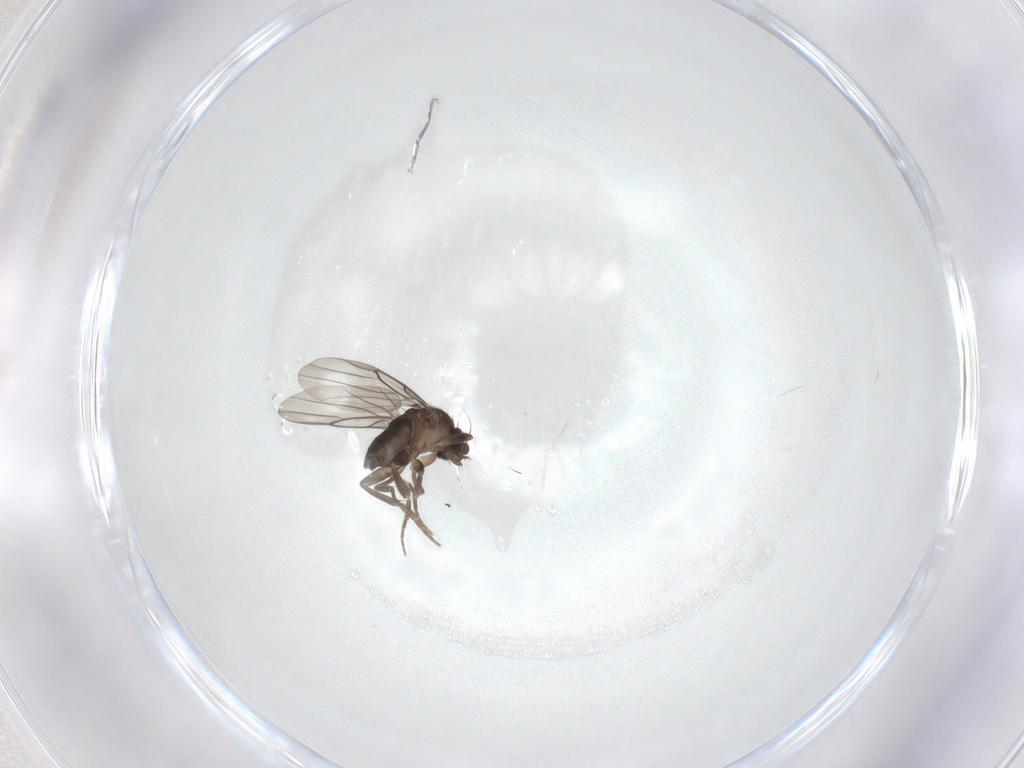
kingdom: Animalia
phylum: Arthropoda
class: Insecta
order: Diptera
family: Phoridae
